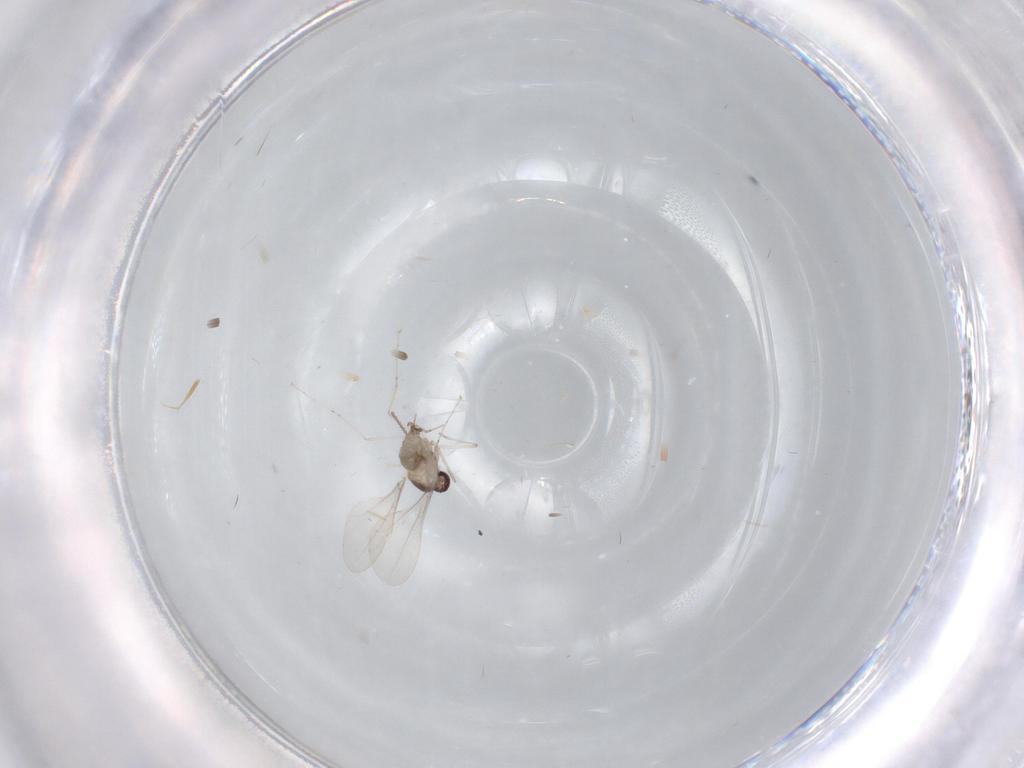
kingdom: Animalia
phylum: Arthropoda
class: Insecta
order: Diptera
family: Cecidomyiidae
